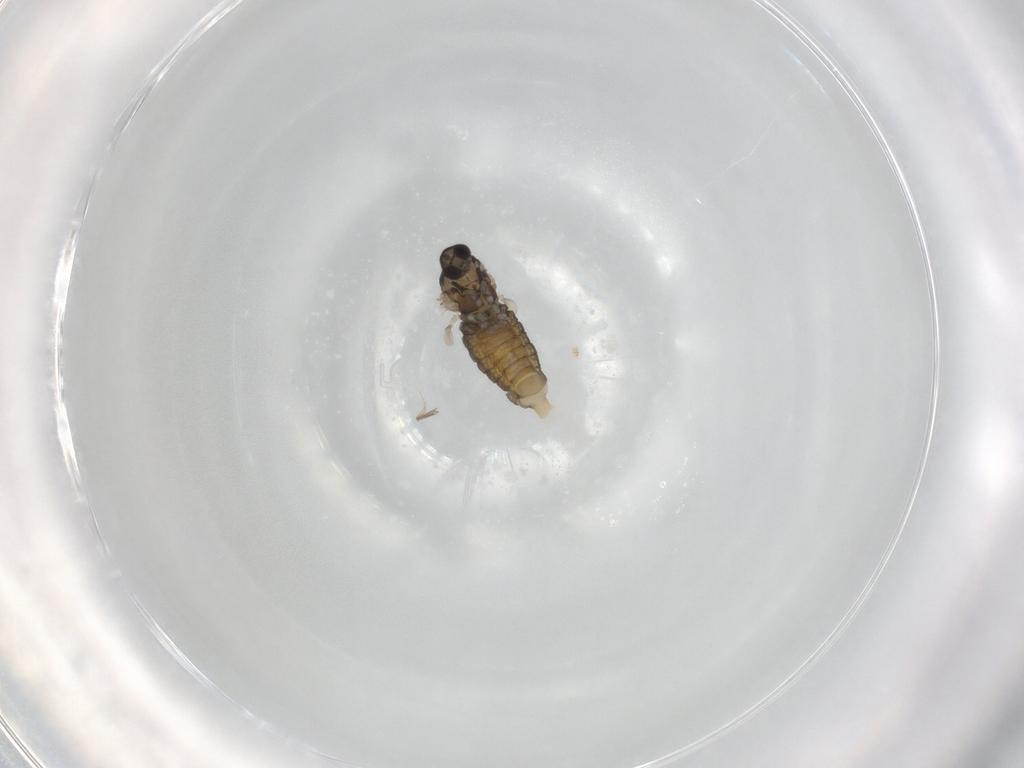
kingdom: Animalia
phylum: Arthropoda
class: Insecta
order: Diptera
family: Cecidomyiidae
